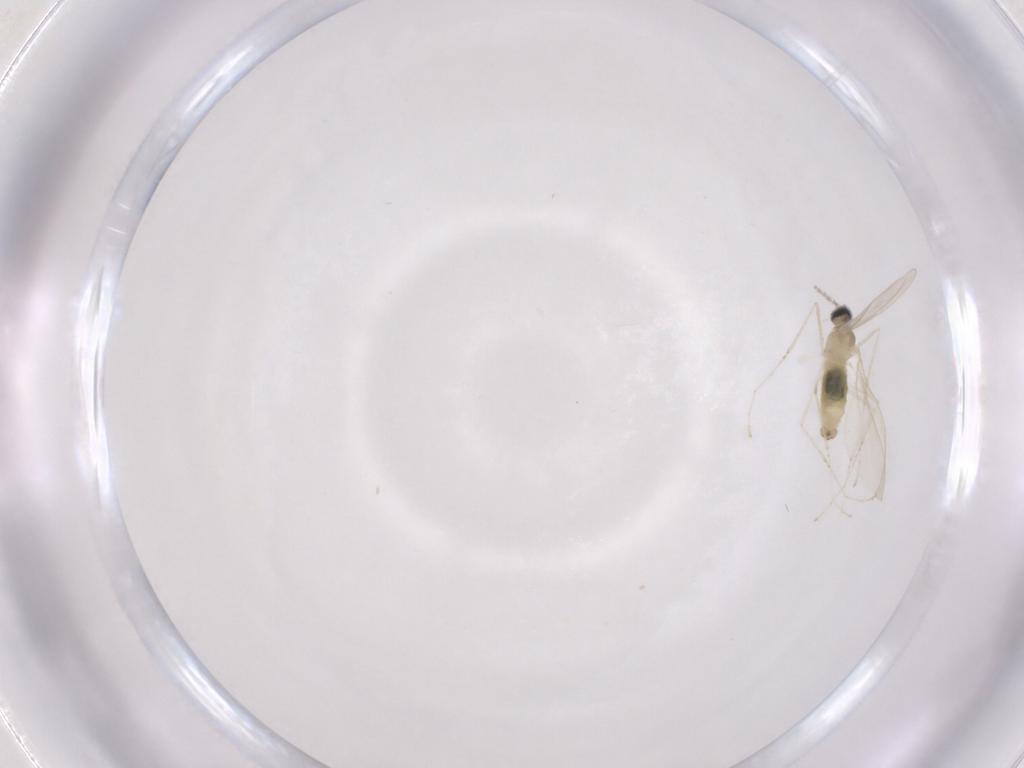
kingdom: Animalia
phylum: Arthropoda
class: Insecta
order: Diptera
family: Cecidomyiidae
